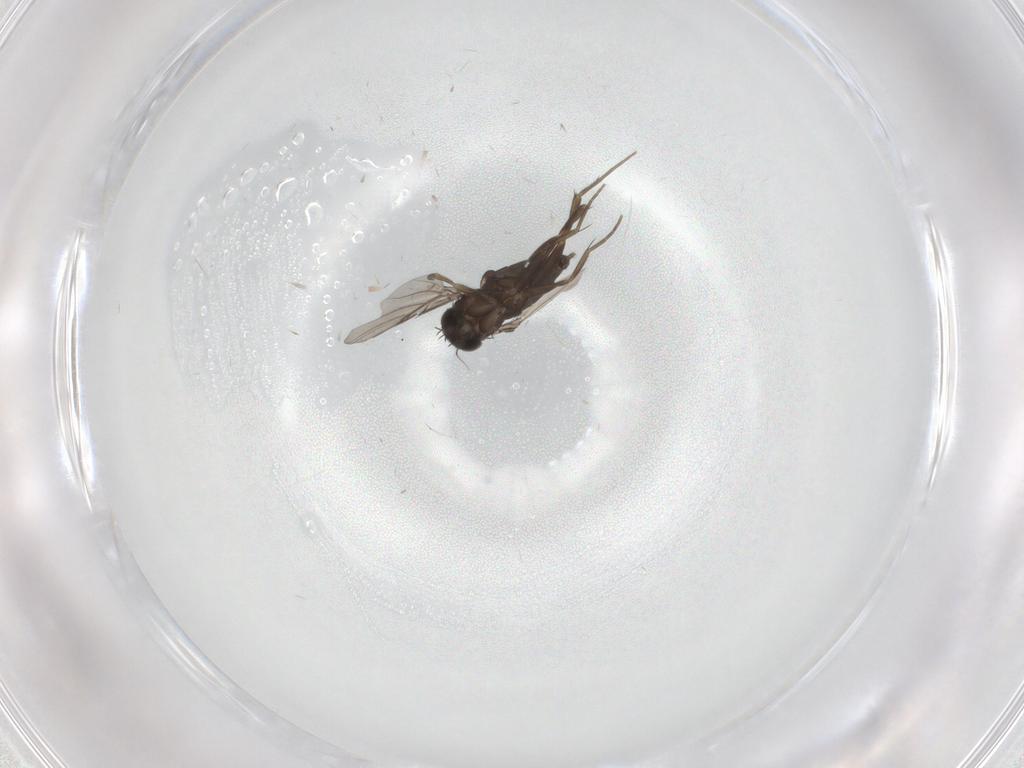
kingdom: Animalia
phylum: Arthropoda
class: Insecta
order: Diptera
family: Phoridae
